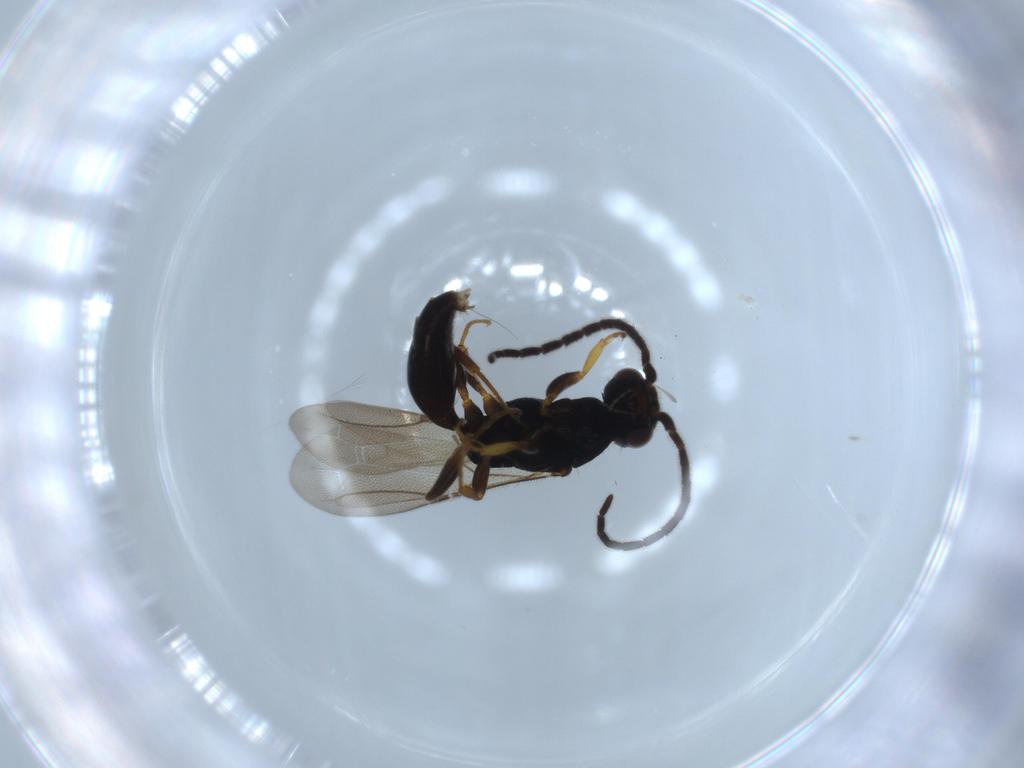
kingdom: Animalia
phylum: Arthropoda
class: Insecta
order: Hymenoptera
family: Bethylidae
